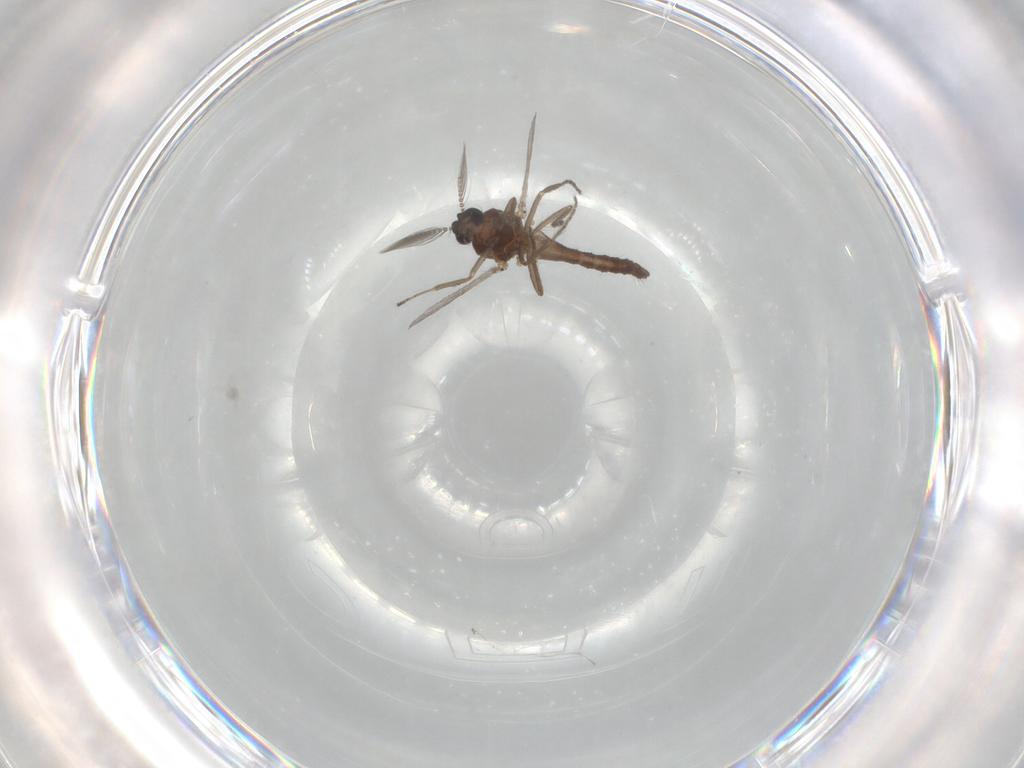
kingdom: Animalia
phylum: Arthropoda
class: Insecta
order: Diptera
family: Ceratopogonidae
